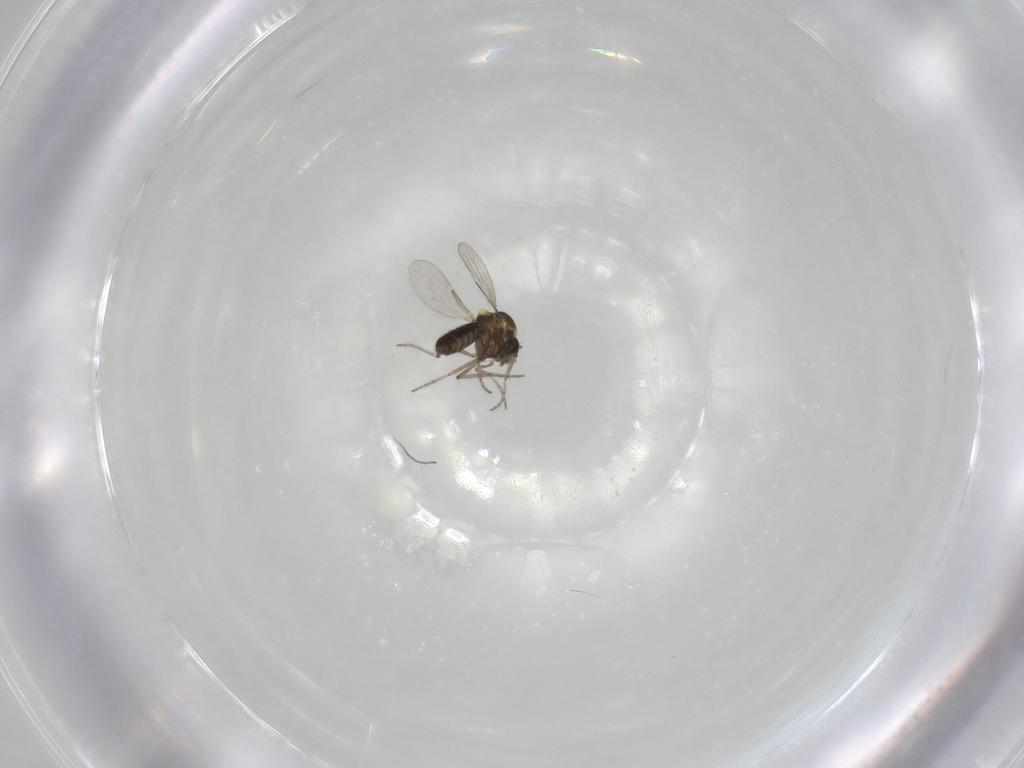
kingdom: Animalia
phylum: Arthropoda
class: Insecta
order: Diptera
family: Ceratopogonidae
